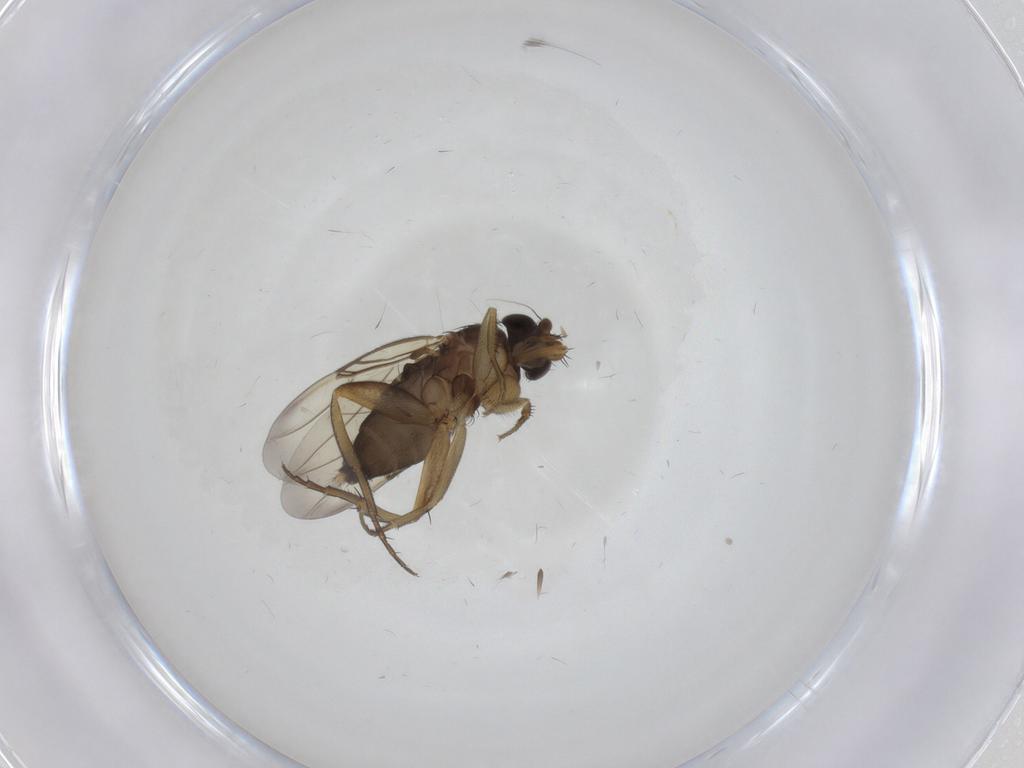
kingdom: Animalia
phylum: Arthropoda
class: Insecta
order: Diptera
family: Phoridae
